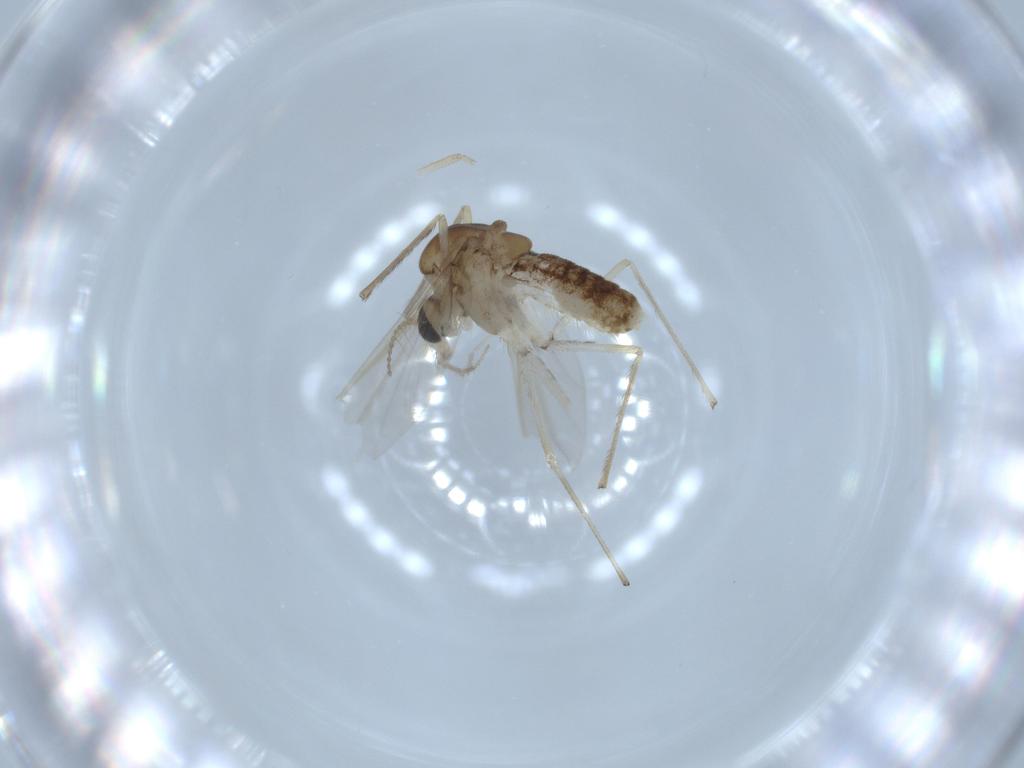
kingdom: Animalia
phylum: Arthropoda
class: Insecta
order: Diptera
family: Chironomidae
